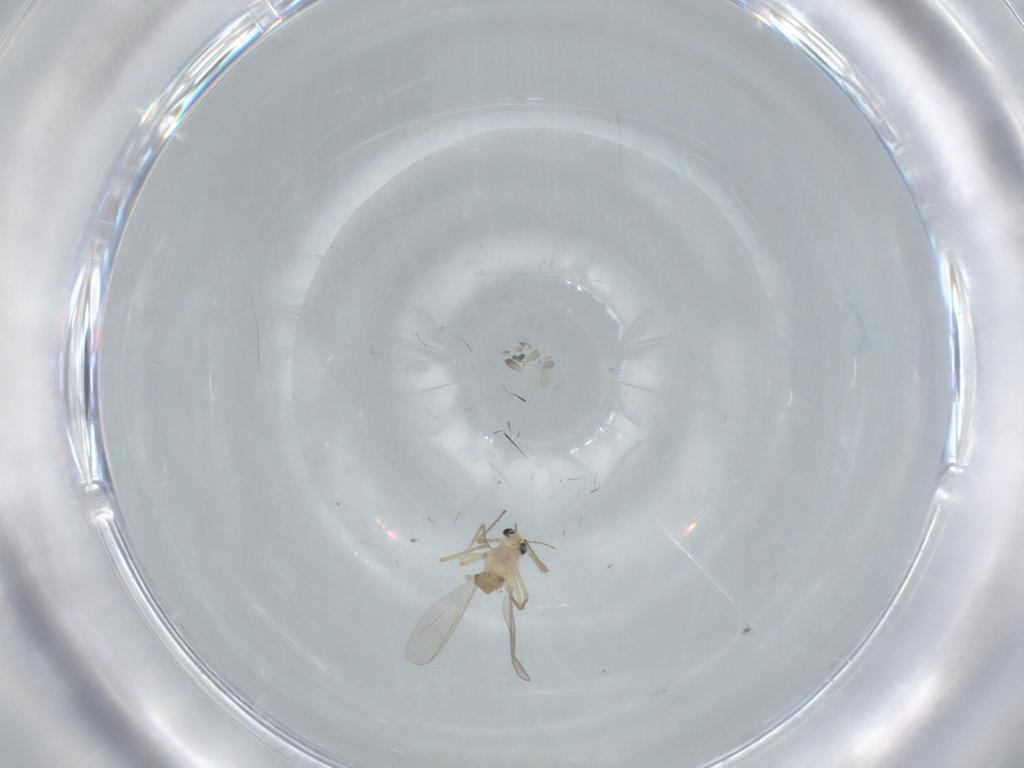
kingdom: Animalia
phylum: Arthropoda
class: Insecta
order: Diptera
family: Chironomidae
